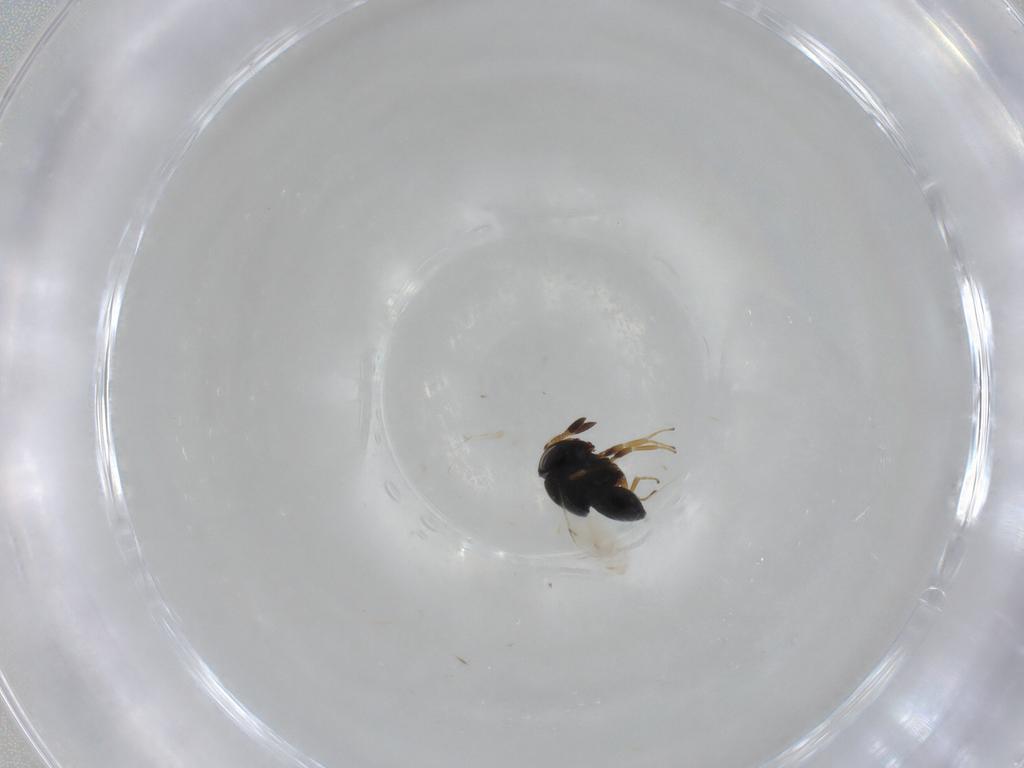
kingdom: Animalia
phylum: Arthropoda
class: Insecta
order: Hymenoptera
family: Scelionidae
